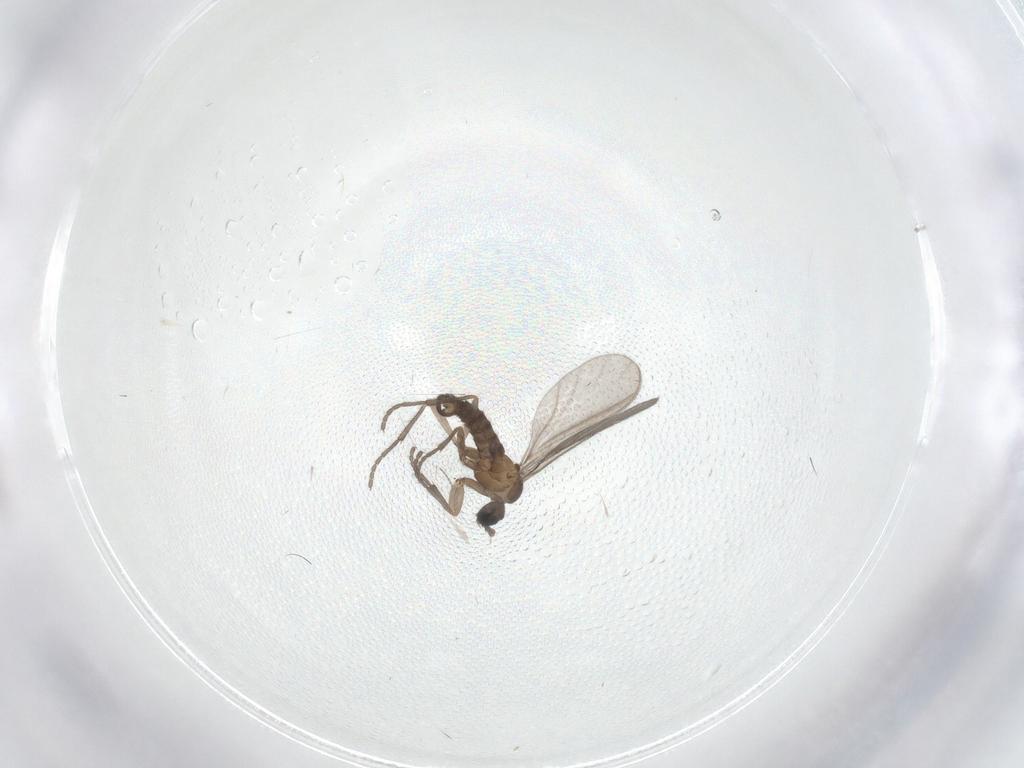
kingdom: Animalia
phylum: Arthropoda
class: Insecta
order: Diptera
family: Sciaridae
